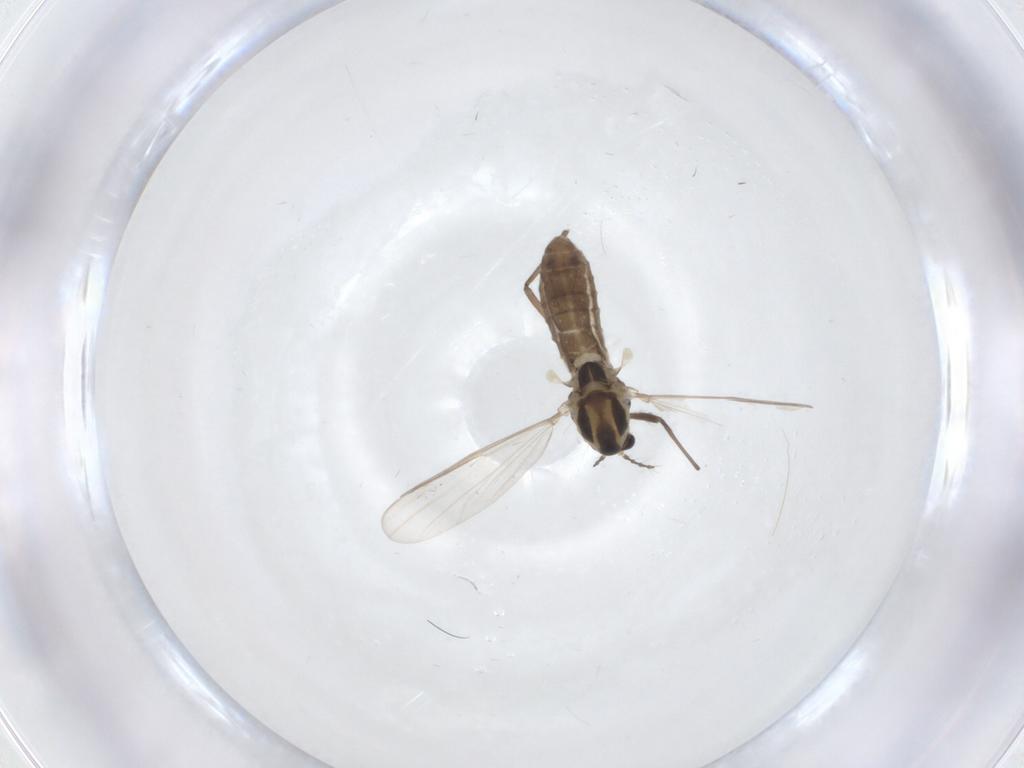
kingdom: Animalia
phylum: Arthropoda
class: Insecta
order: Diptera
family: Chironomidae
